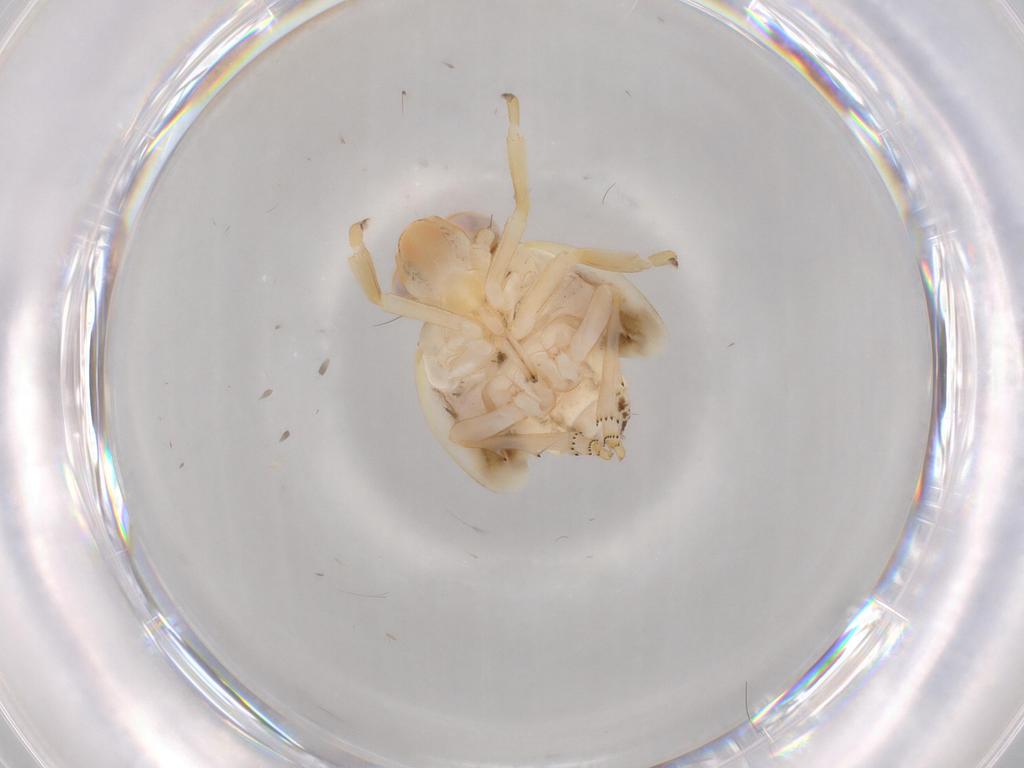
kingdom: Animalia
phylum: Arthropoda
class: Insecta
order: Hemiptera
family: Nogodinidae
